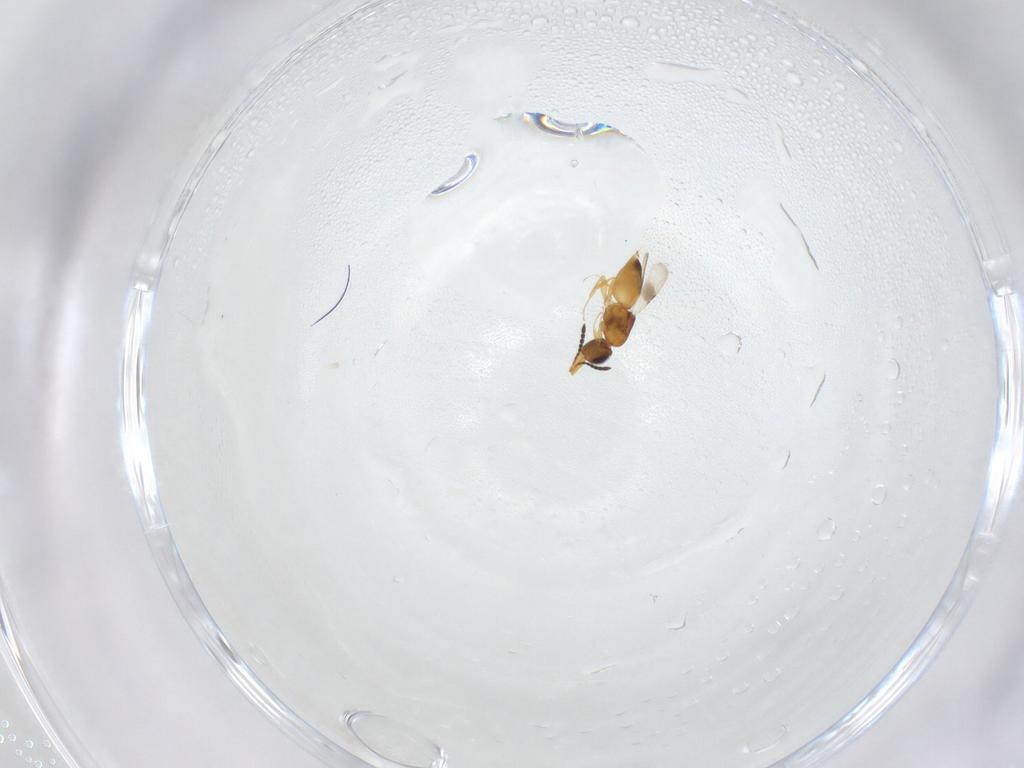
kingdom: Animalia
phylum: Arthropoda
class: Insecta
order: Hymenoptera
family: Ceraphronidae
